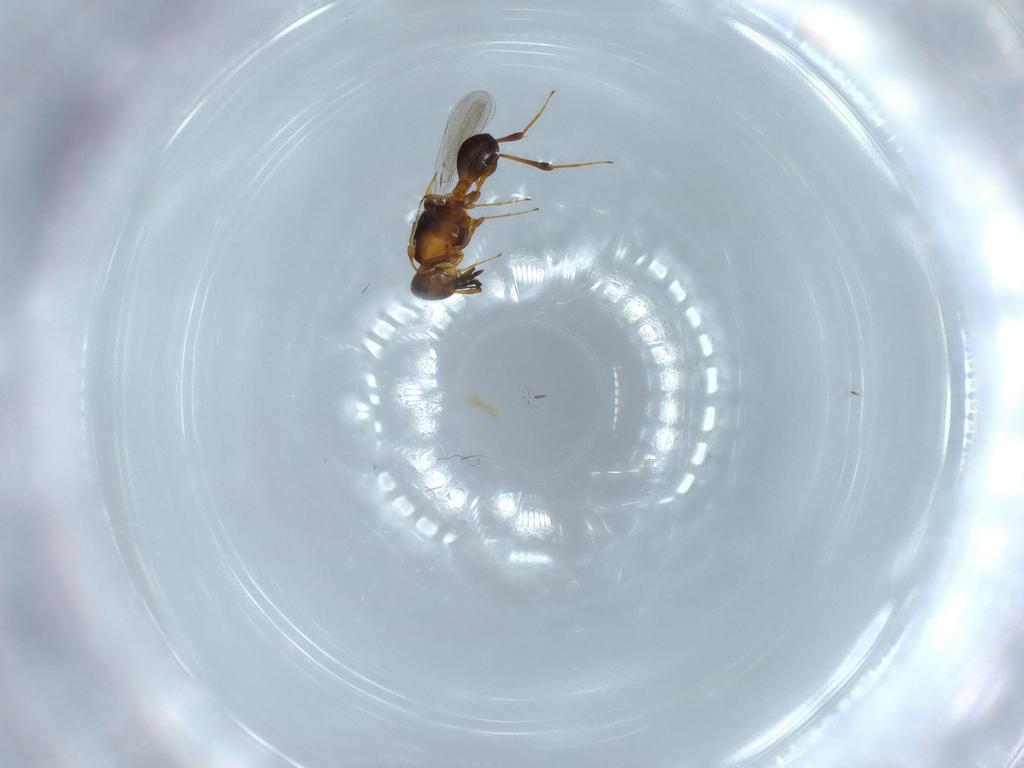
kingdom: Animalia
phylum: Arthropoda
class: Insecta
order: Hymenoptera
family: Platygastridae
